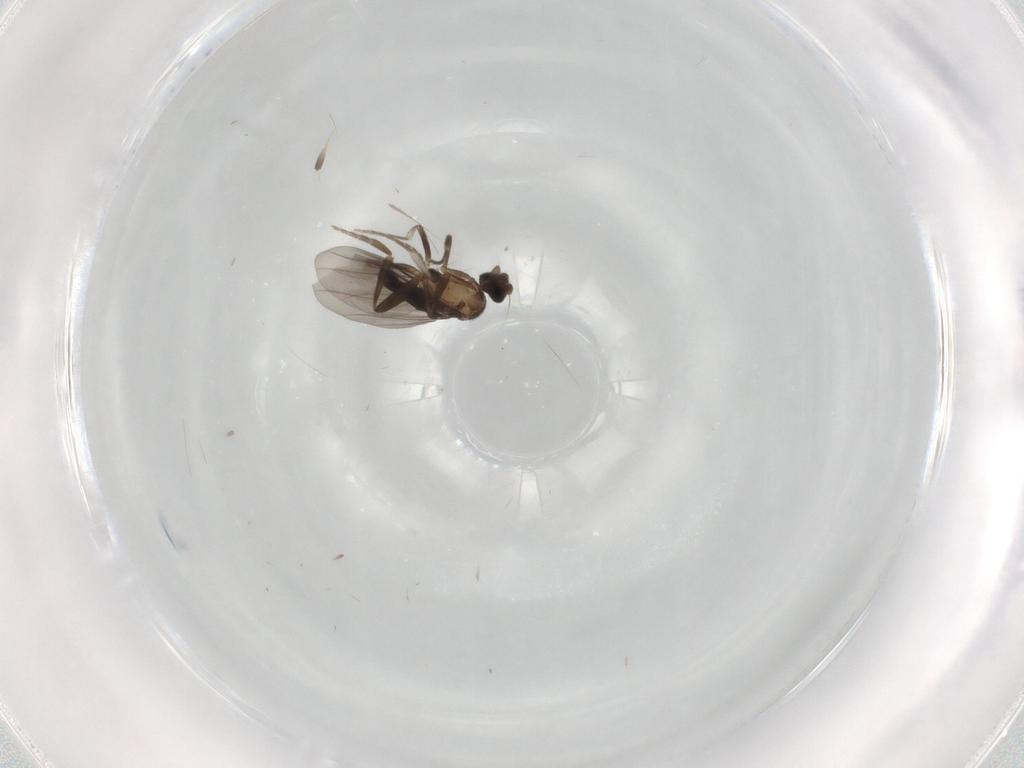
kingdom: Animalia
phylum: Arthropoda
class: Insecta
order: Diptera
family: Phoridae
